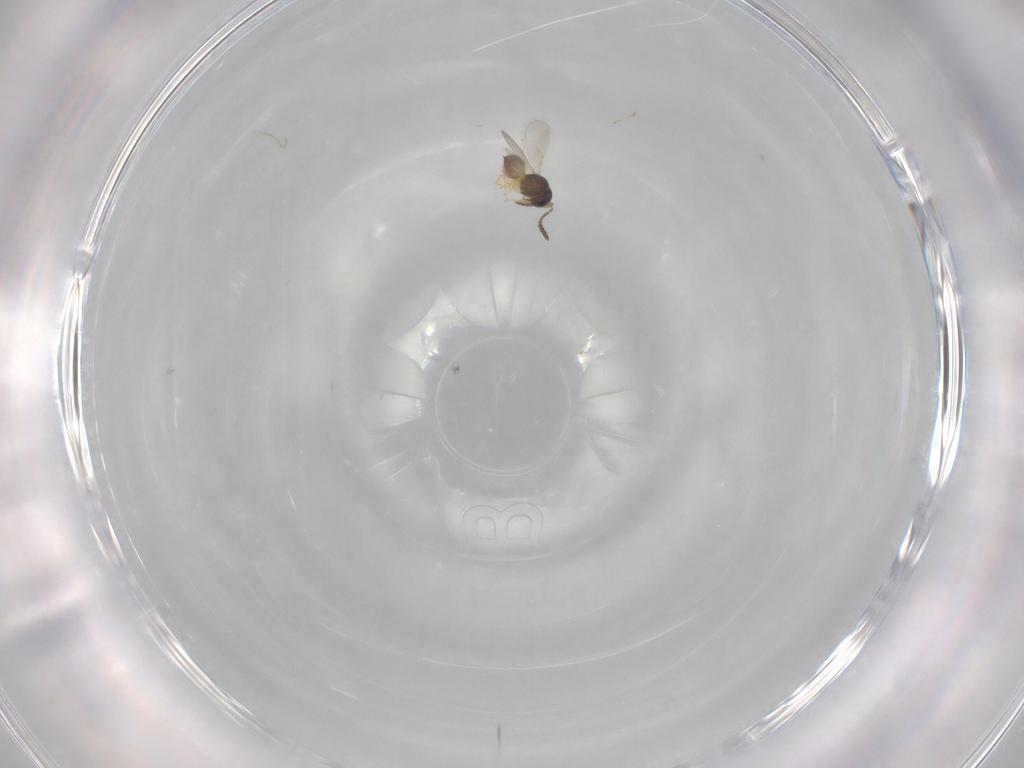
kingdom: Animalia
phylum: Arthropoda
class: Insecta
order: Hymenoptera
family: Scelionidae
